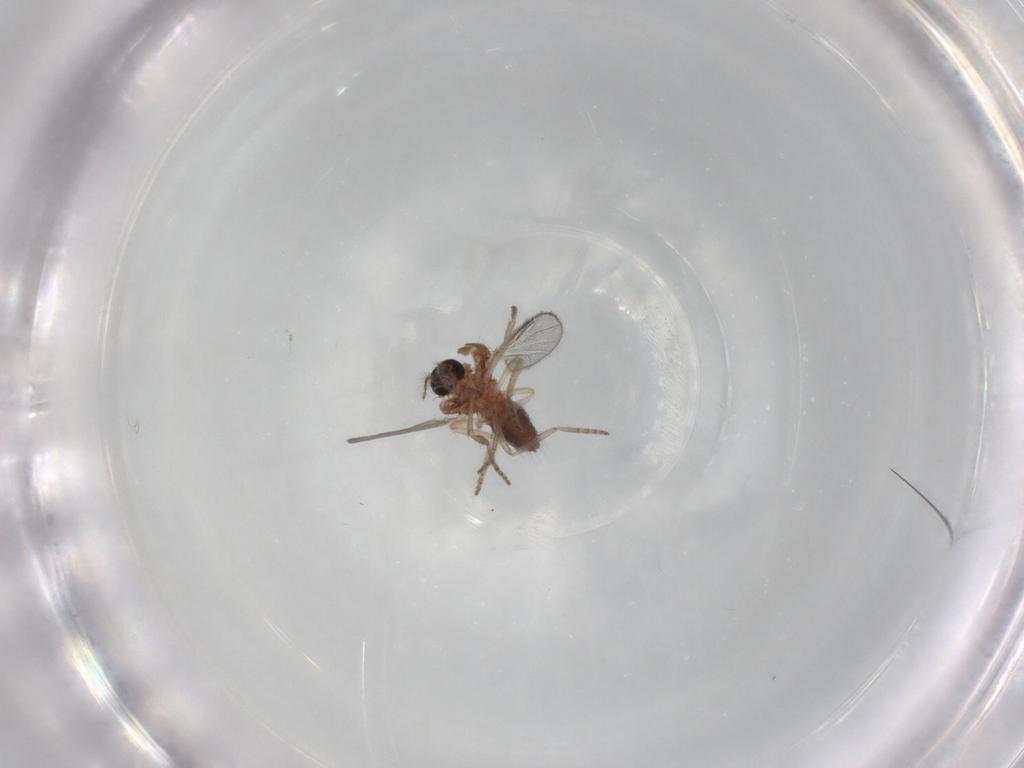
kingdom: Animalia
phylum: Arthropoda
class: Insecta
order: Diptera
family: Ceratopogonidae
